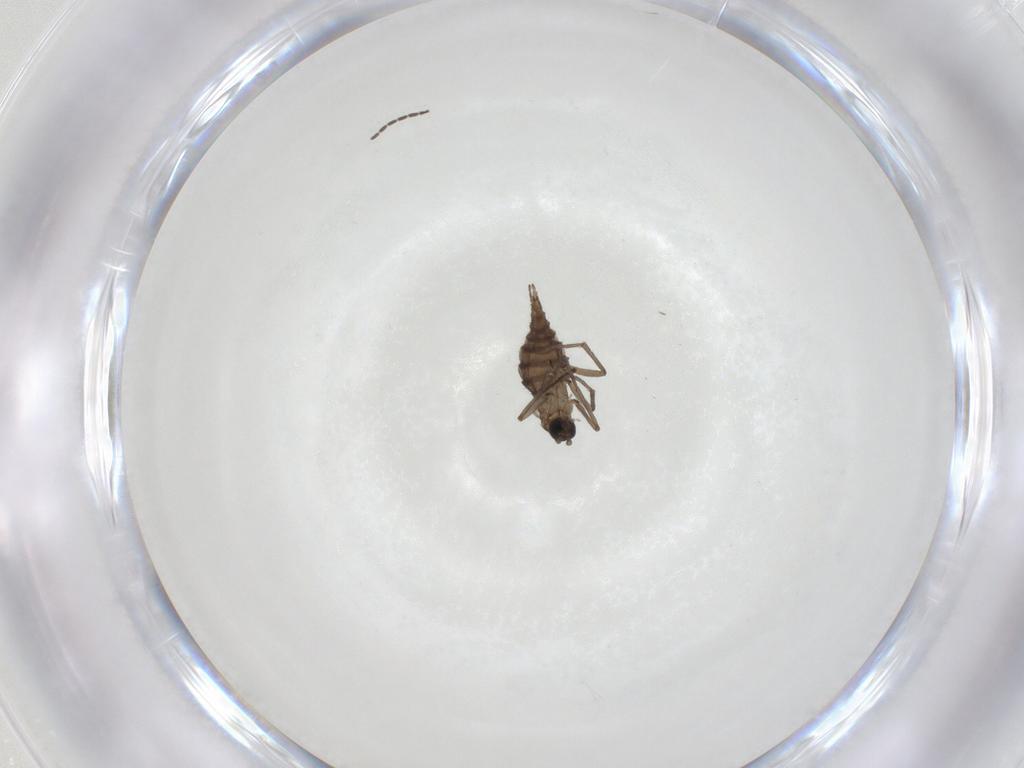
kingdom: Animalia
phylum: Arthropoda
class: Insecta
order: Diptera
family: Sciaridae
